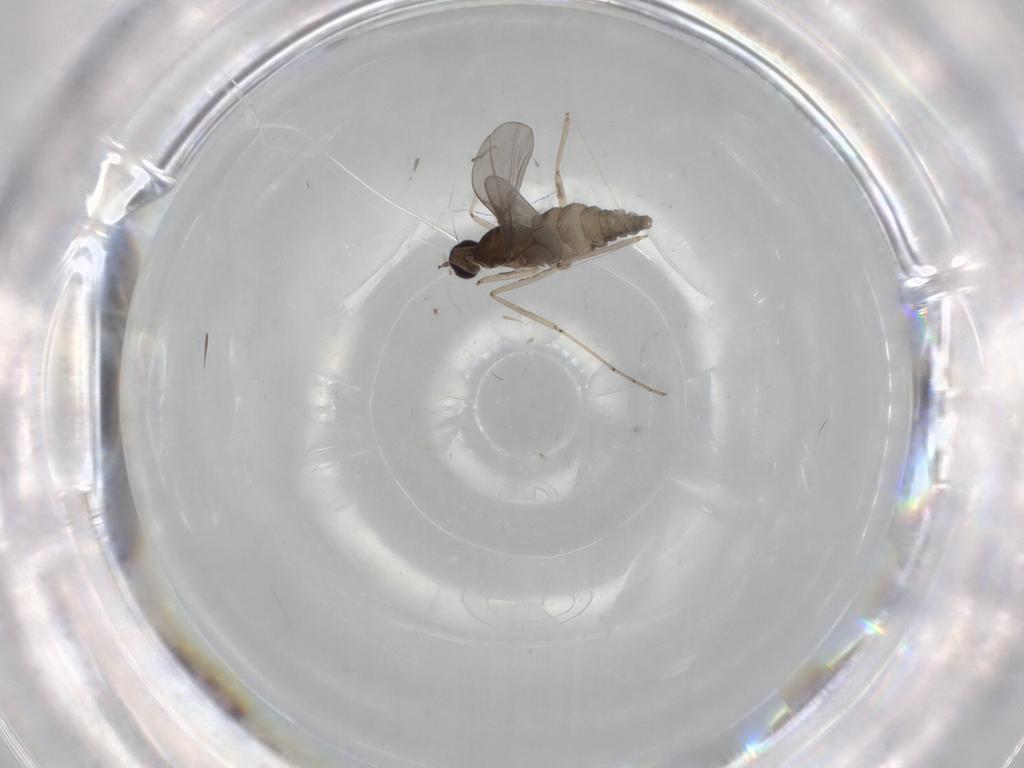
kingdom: Animalia
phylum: Arthropoda
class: Insecta
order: Diptera
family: Cecidomyiidae
